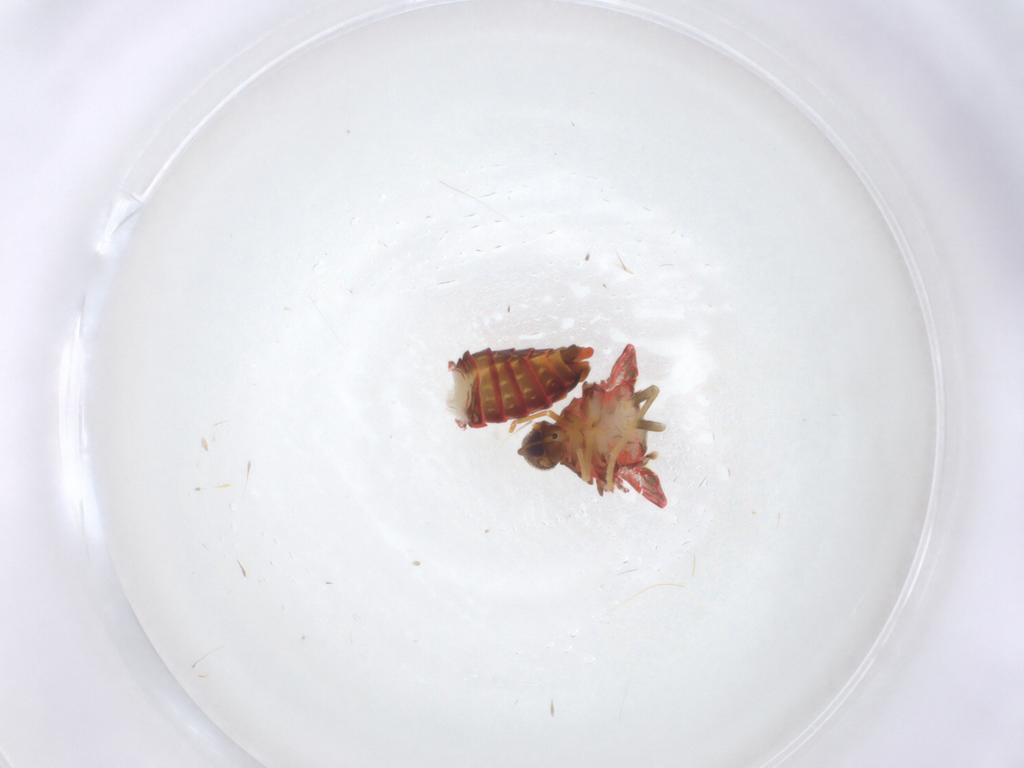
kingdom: Animalia
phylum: Arthropoda
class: Insecta
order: Hemiptera
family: Derbidae
